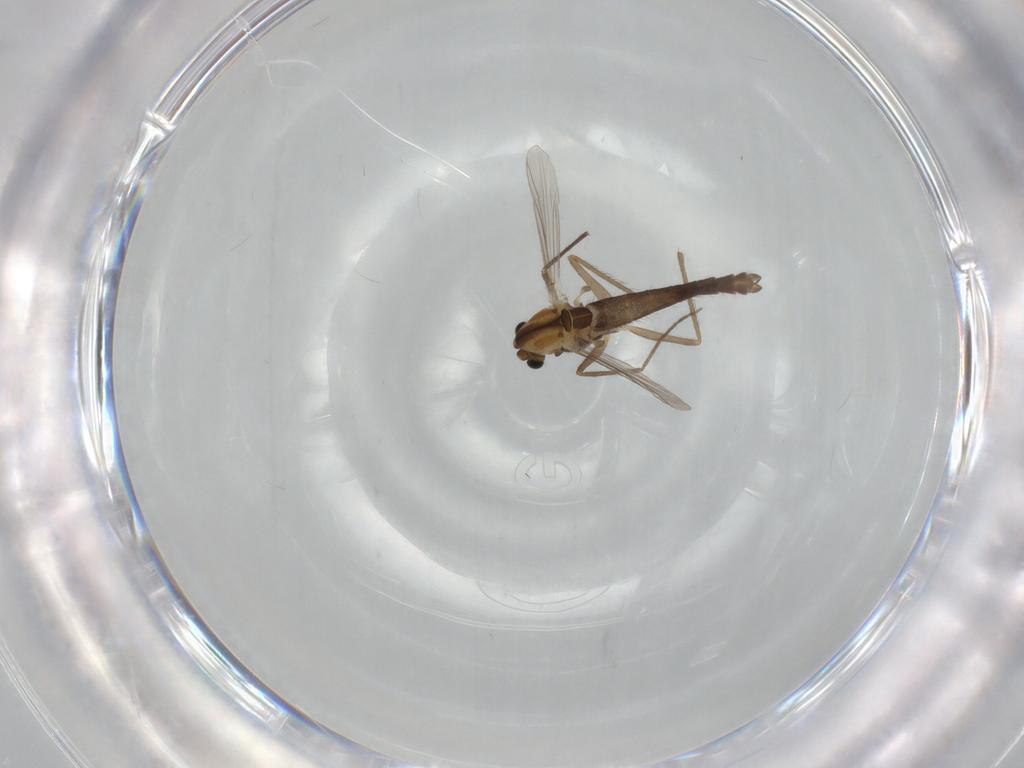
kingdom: Animalia
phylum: Arthropoda
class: Insecta
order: Diptera
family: Chironomidae
